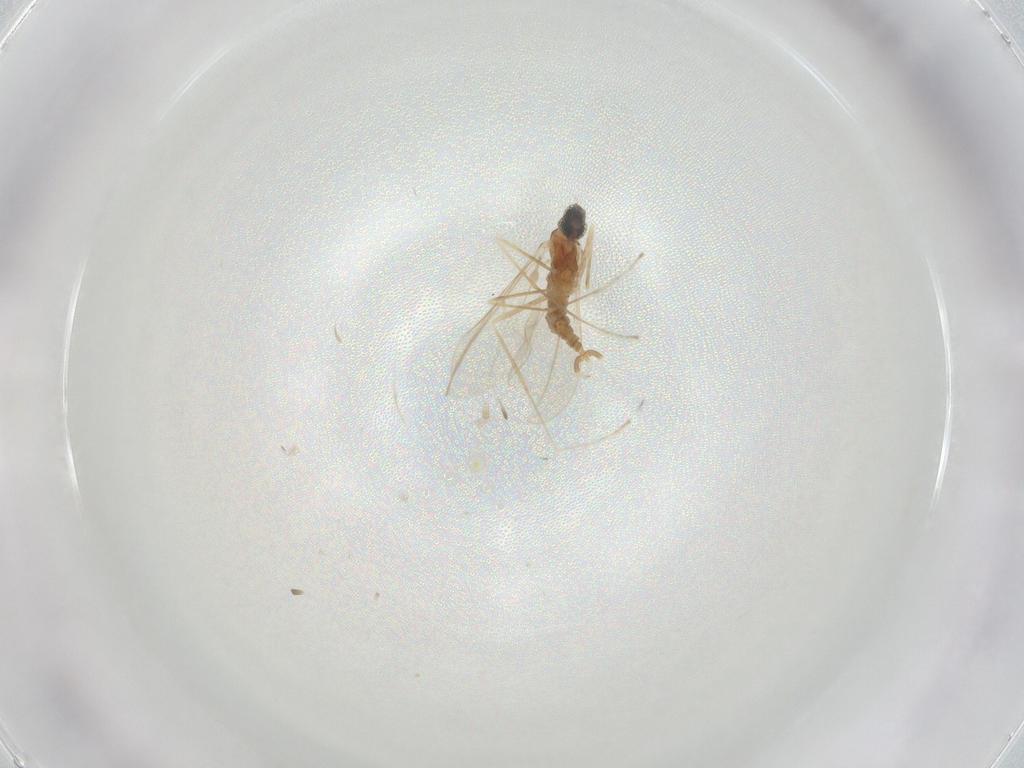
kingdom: Animalia
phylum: Arthropoda
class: Insecta
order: Diptera
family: Cecidomyiidae
